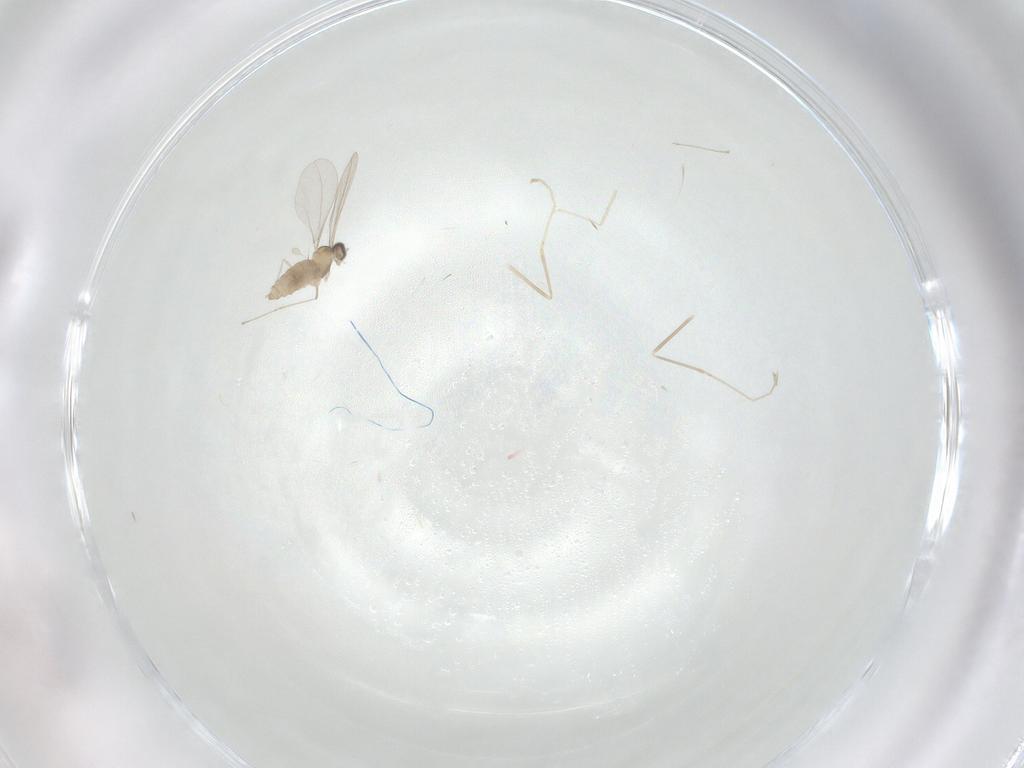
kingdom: Animalia
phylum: Arthropoda
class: Insecta
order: Diptera
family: Cecidomyiidae
